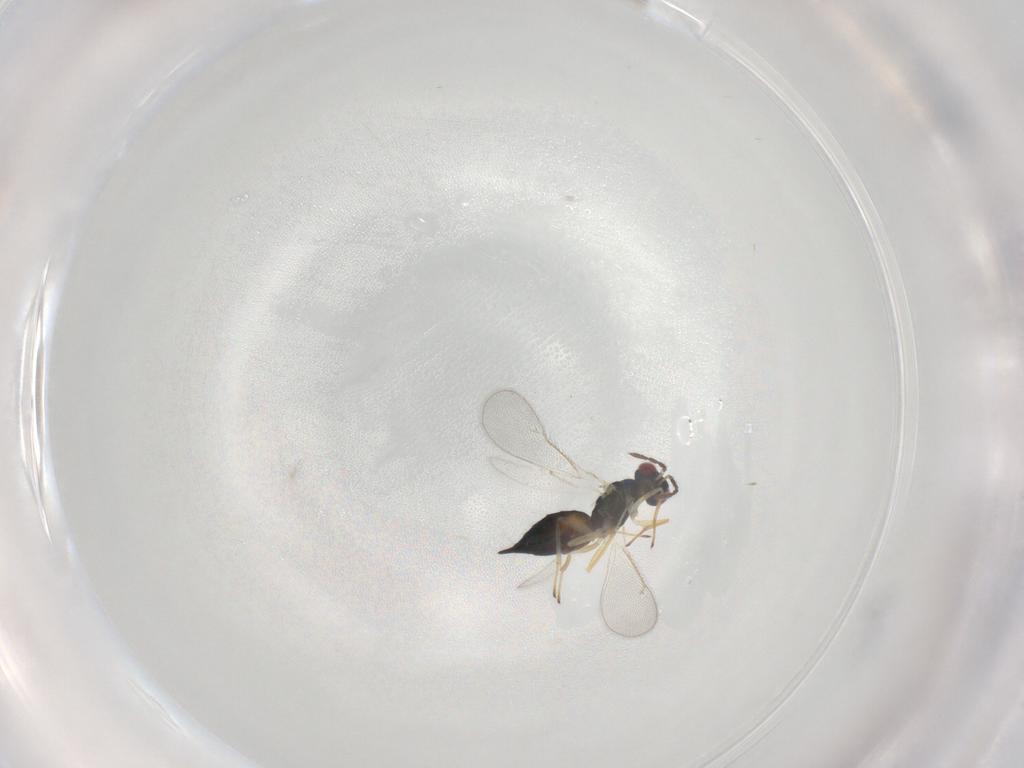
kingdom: Animalia
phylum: Arthropoda
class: Insecta
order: Hymenoptera
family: Eulophidae
